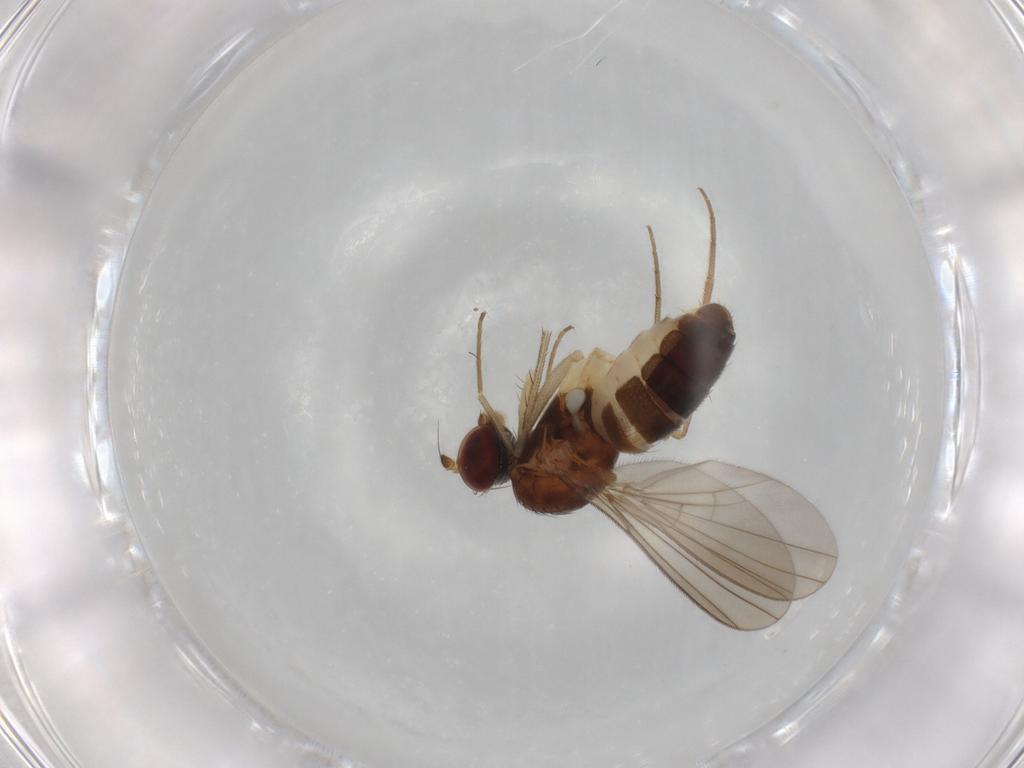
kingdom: Animalia
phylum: Arthropoda
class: Insecta
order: Diptera
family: Dolichopodidae
